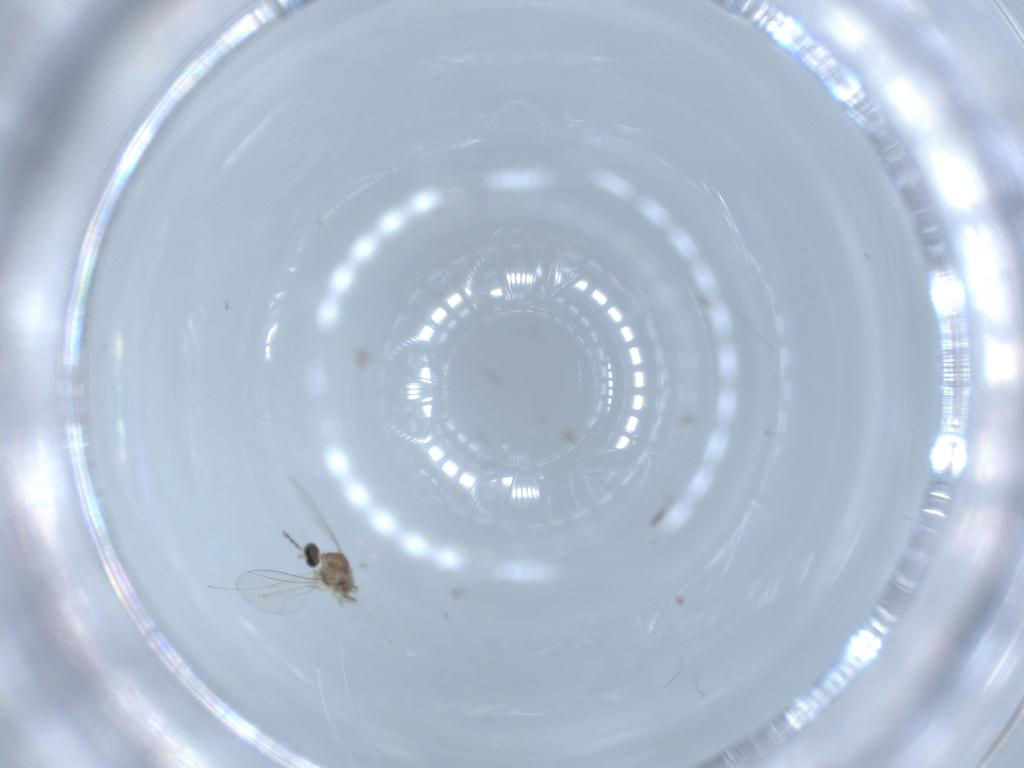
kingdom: Animalia
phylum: Arthropoda
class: Insecta
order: Diptera
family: Cecidomyiidae
